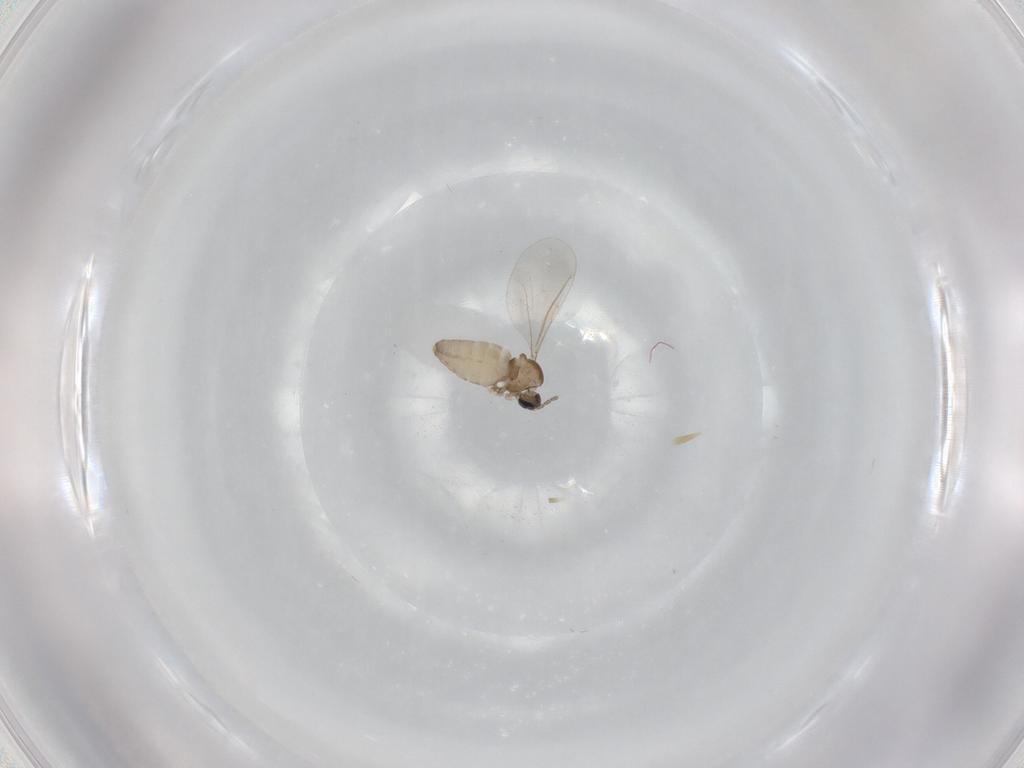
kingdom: Animalia
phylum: Arthropoda
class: Insecta
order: Diptera
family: Cecidomyiidae
